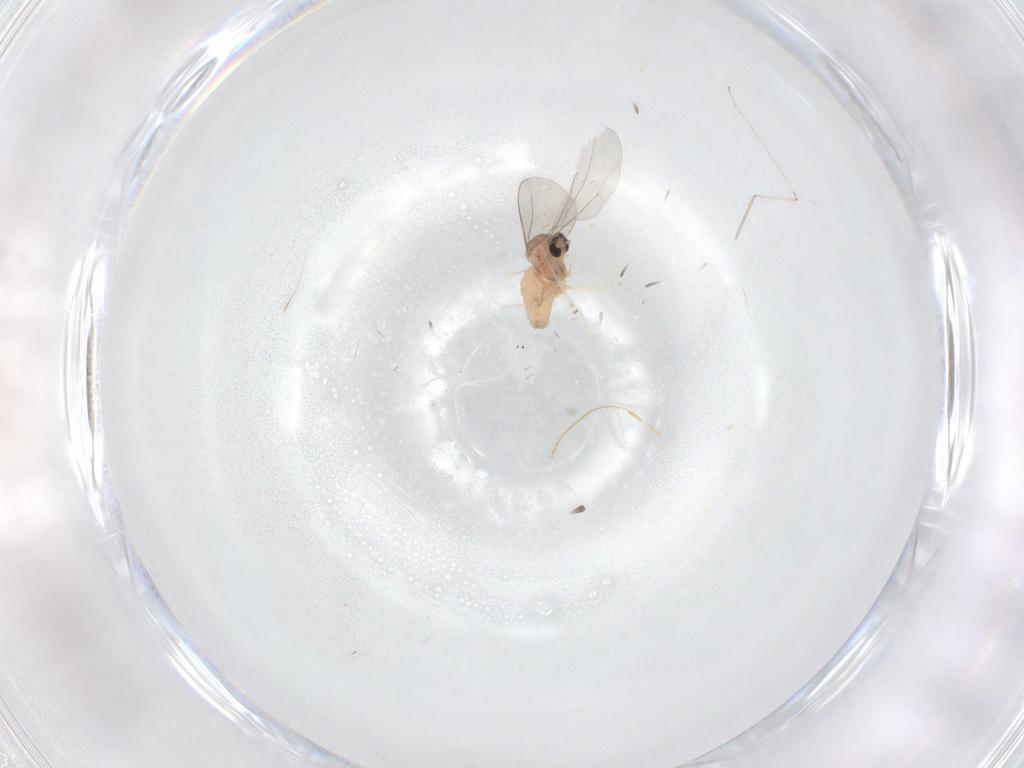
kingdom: Animalia
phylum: Arthropoda
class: Insecta
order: Diptera
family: Cecidomyiidae
